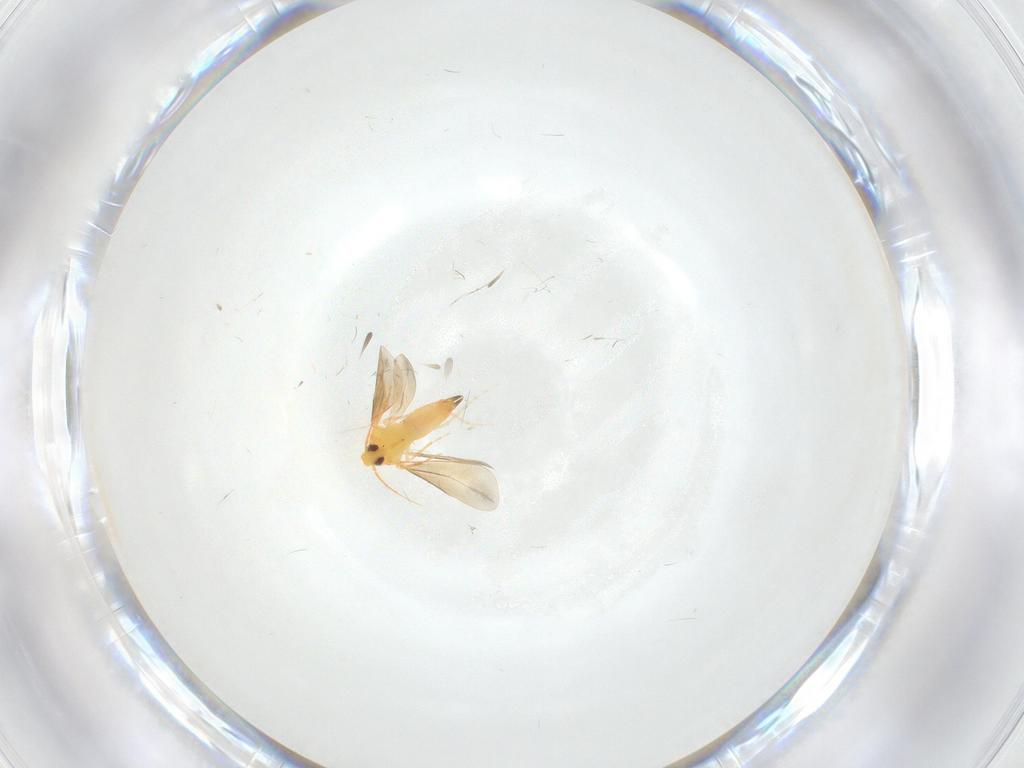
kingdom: Animalia
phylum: Arthropoda
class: Insecta
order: Hemiptera
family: Aleyrodidae
